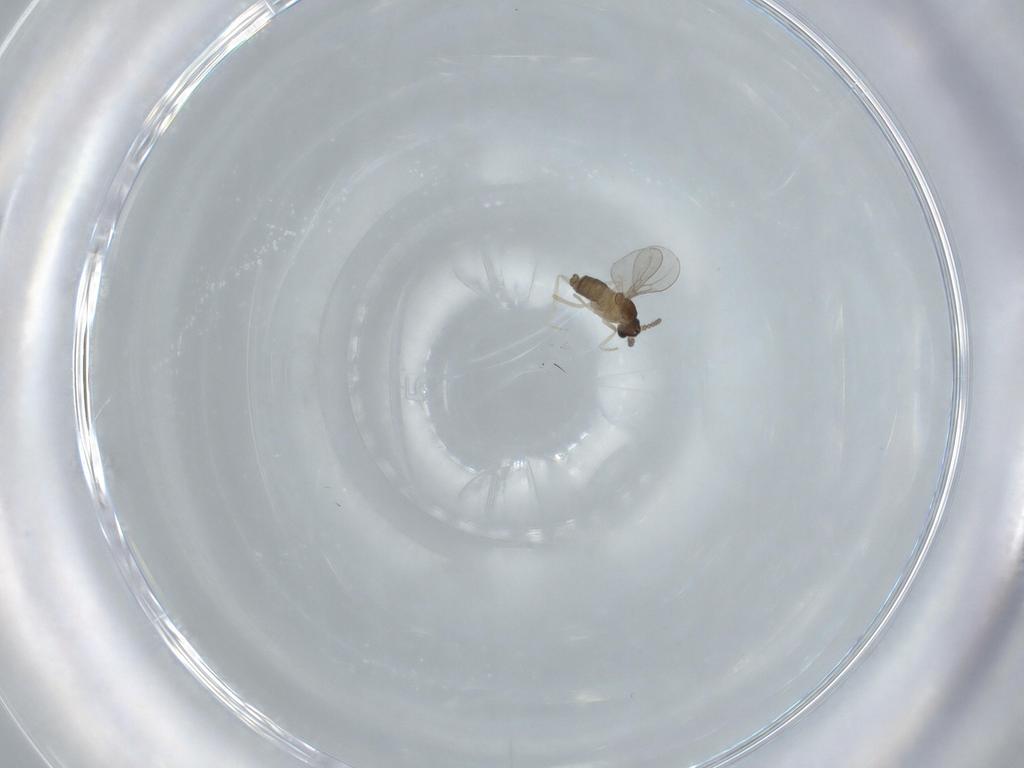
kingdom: Animalia
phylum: Arthropoda
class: Insecta
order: Diptera
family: Cecidomyiidae
